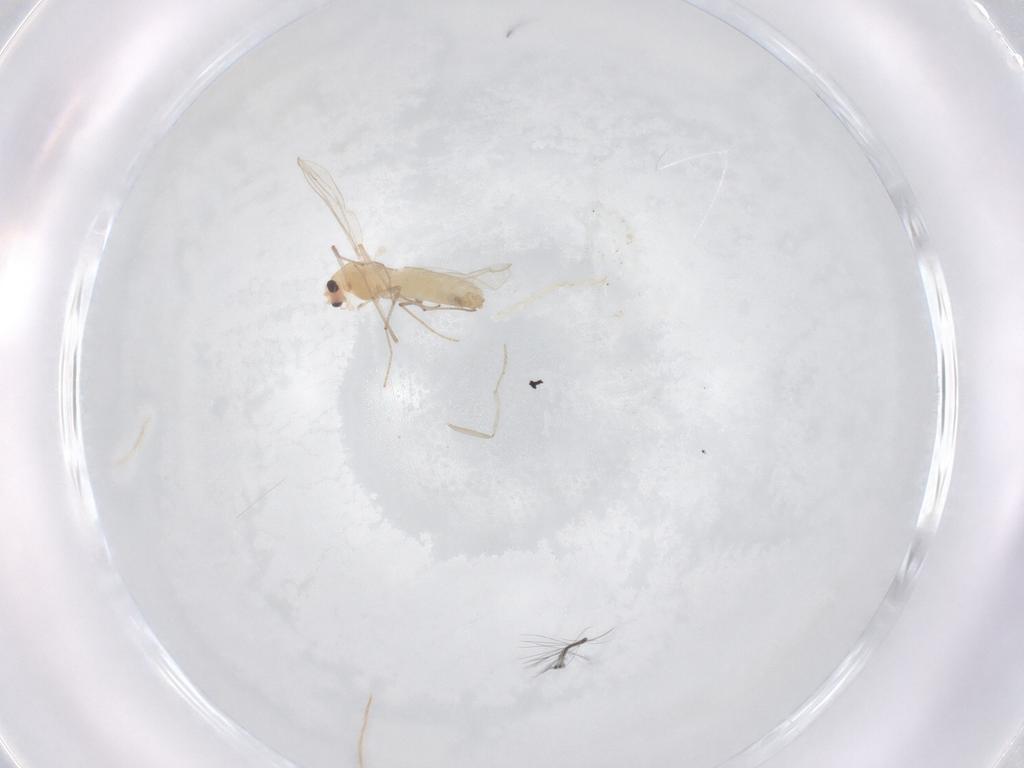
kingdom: Animalia
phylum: Arthropoda
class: Insecta
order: Diptera
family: Chironomidae
